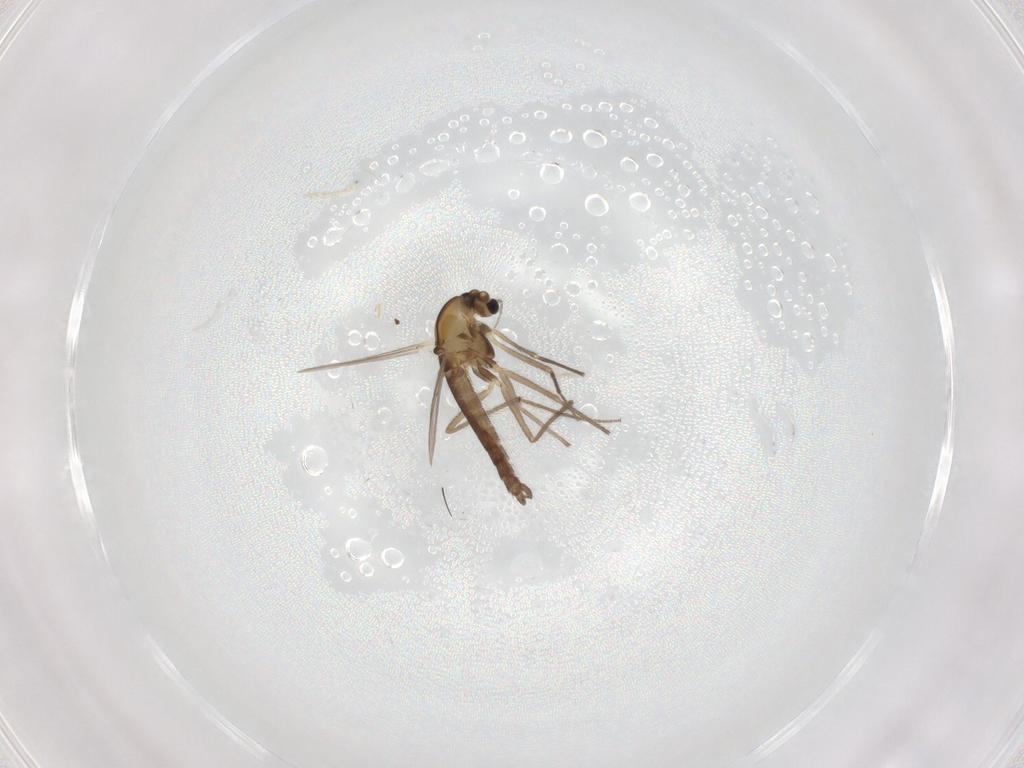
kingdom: Animalia
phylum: Arthropoda
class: Insecta
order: Diptera
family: Chironomidae
